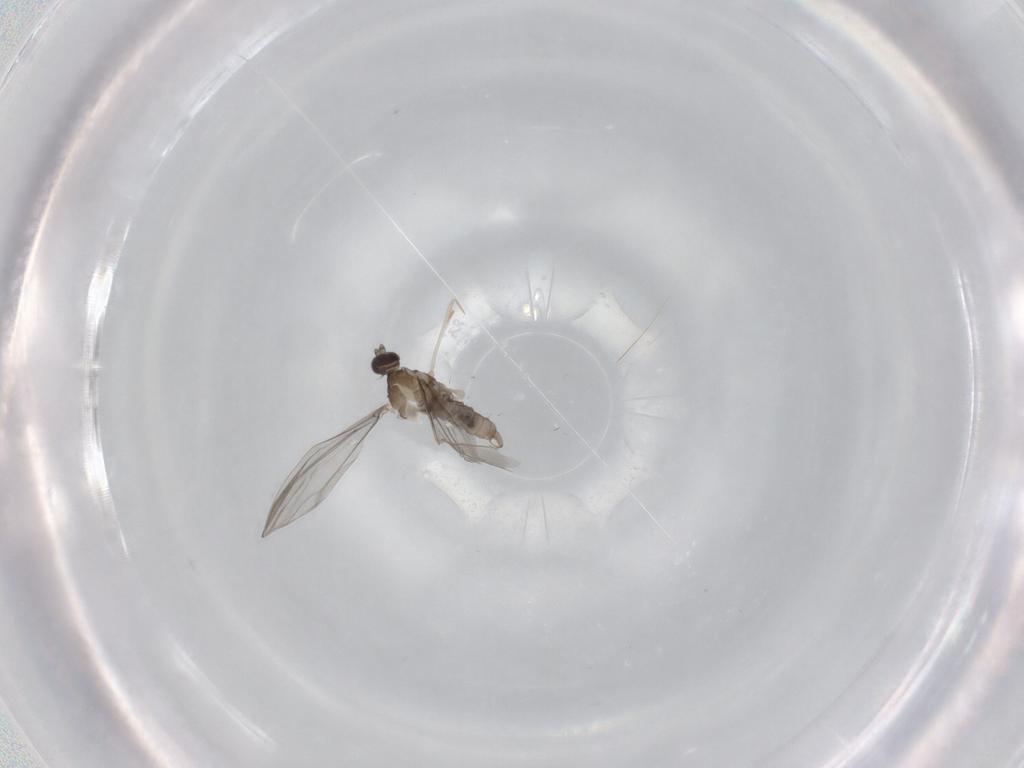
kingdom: Animalia
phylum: Arthropoda
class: Insecta
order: Diptera
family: Cecidomyiidae
